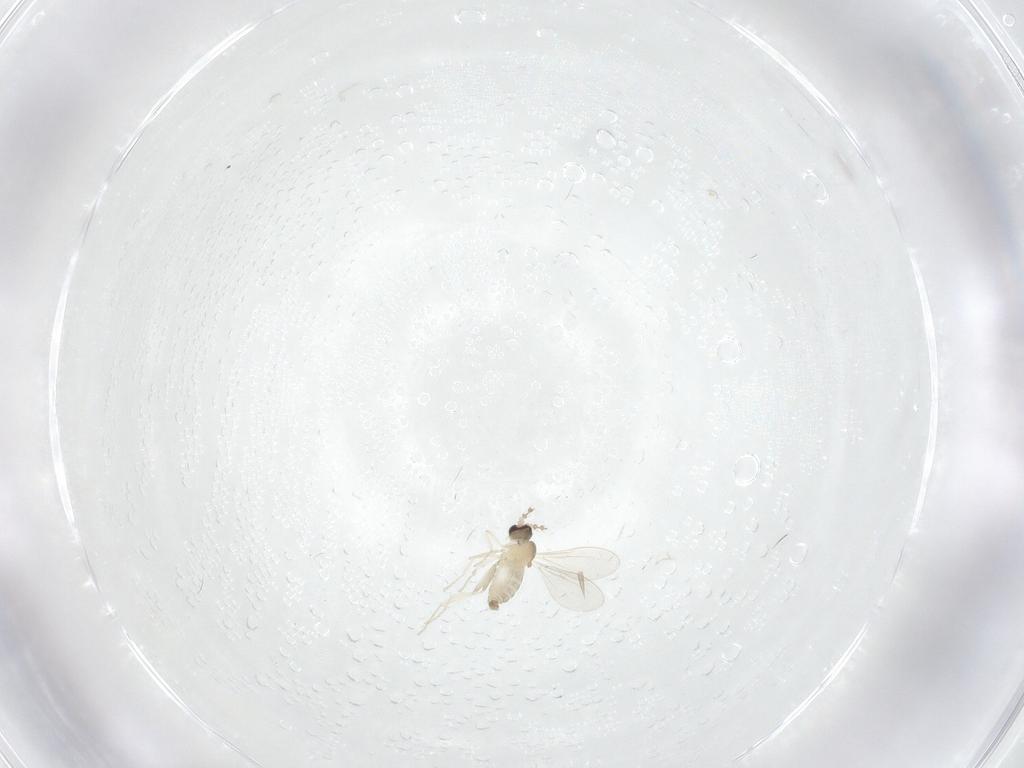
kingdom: Animalia
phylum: Arthropoda
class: Insecta
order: Diptera
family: Cecidomyiidae
